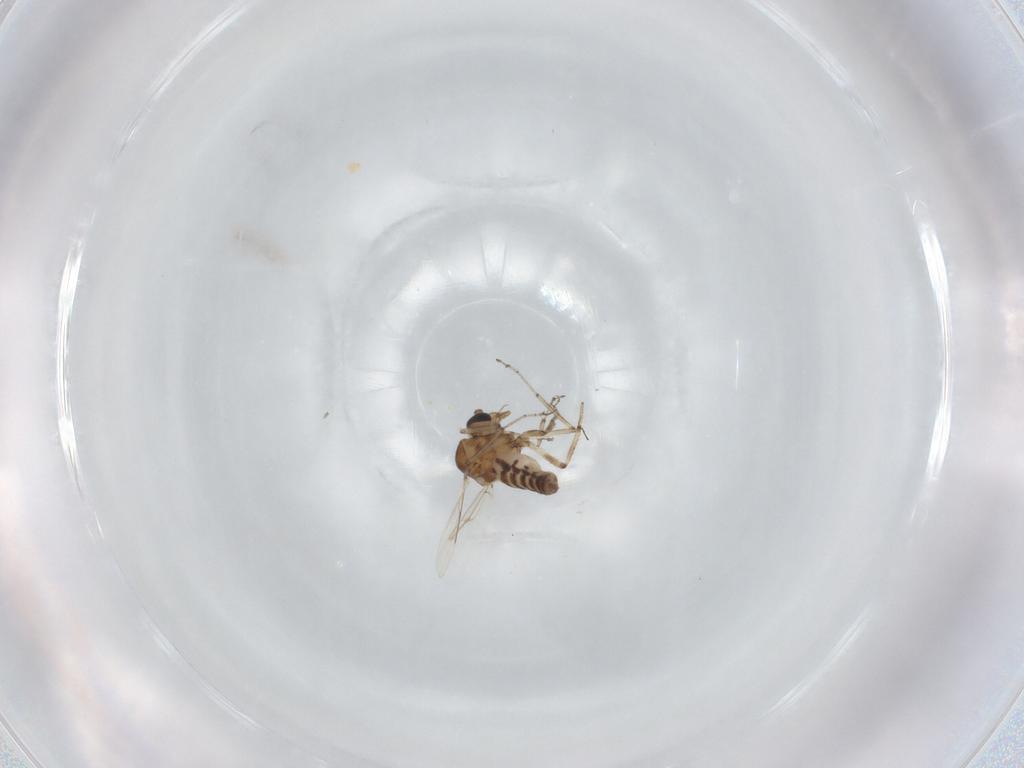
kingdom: Animalia
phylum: Arthropoda
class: Insecta
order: Diptera
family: Ceratopogonidae
